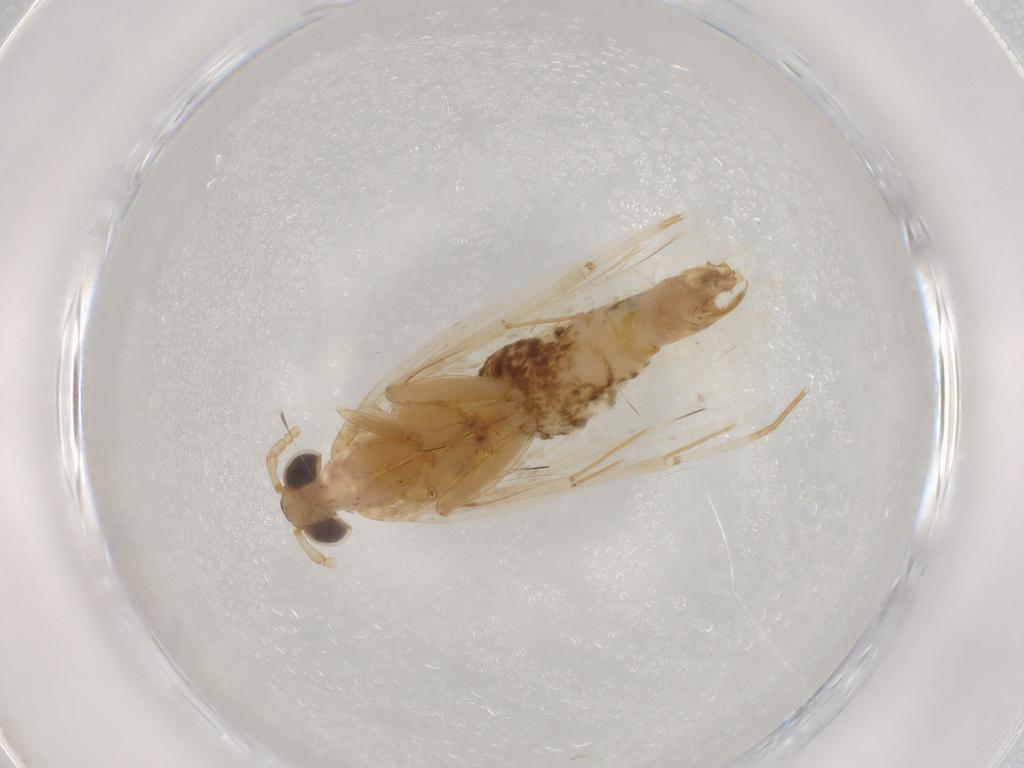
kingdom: Animalia
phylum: Arthropoda
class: Insecta
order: Lepidoptera
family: Lecithoceridae
